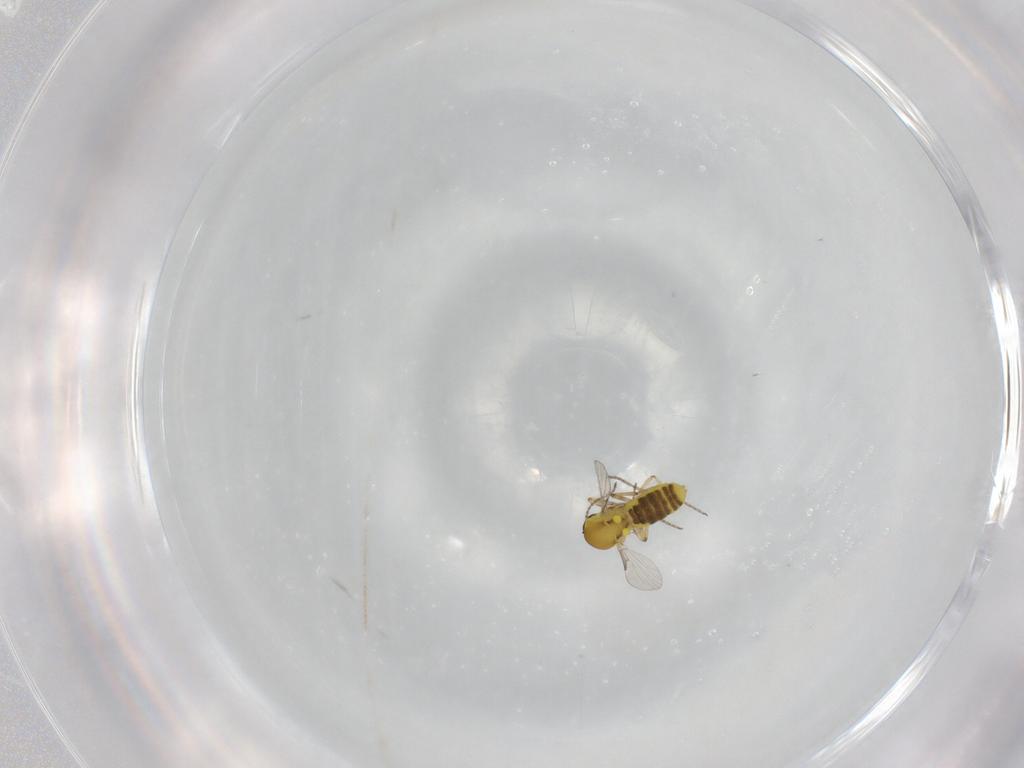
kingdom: Animalia
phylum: Arthropoda
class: Insecta
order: Diptera
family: Ceratopogonidae
